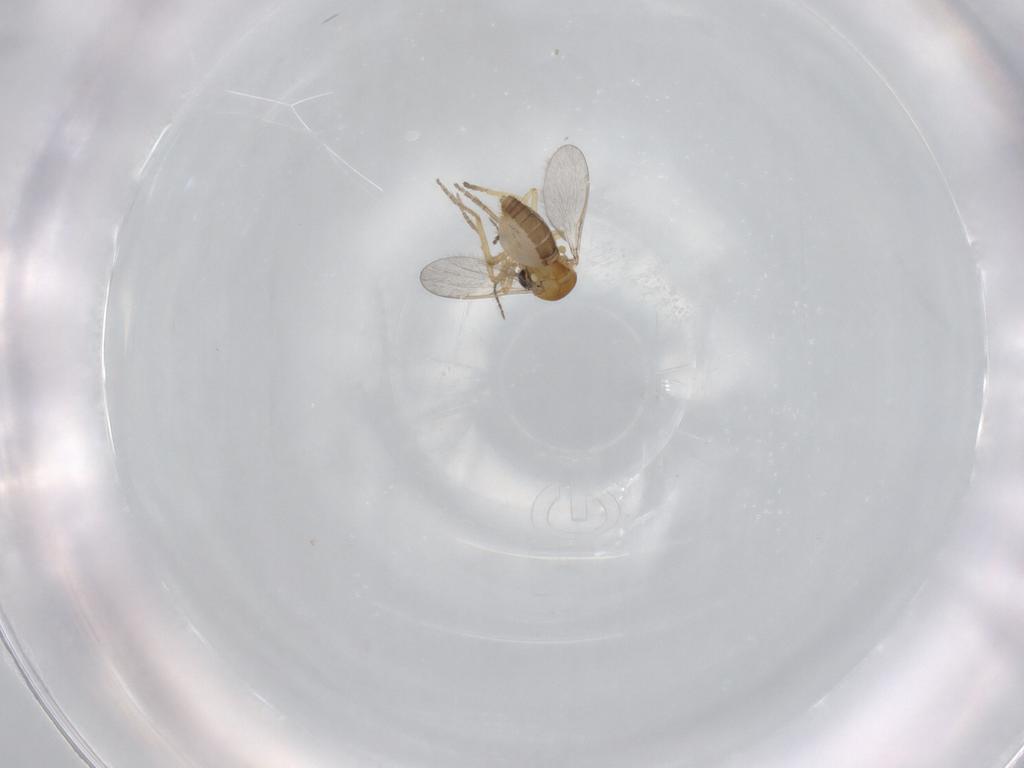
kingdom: Animalia
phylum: Arthropoda
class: Insecta
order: Diptera
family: Ceratopogonidae
